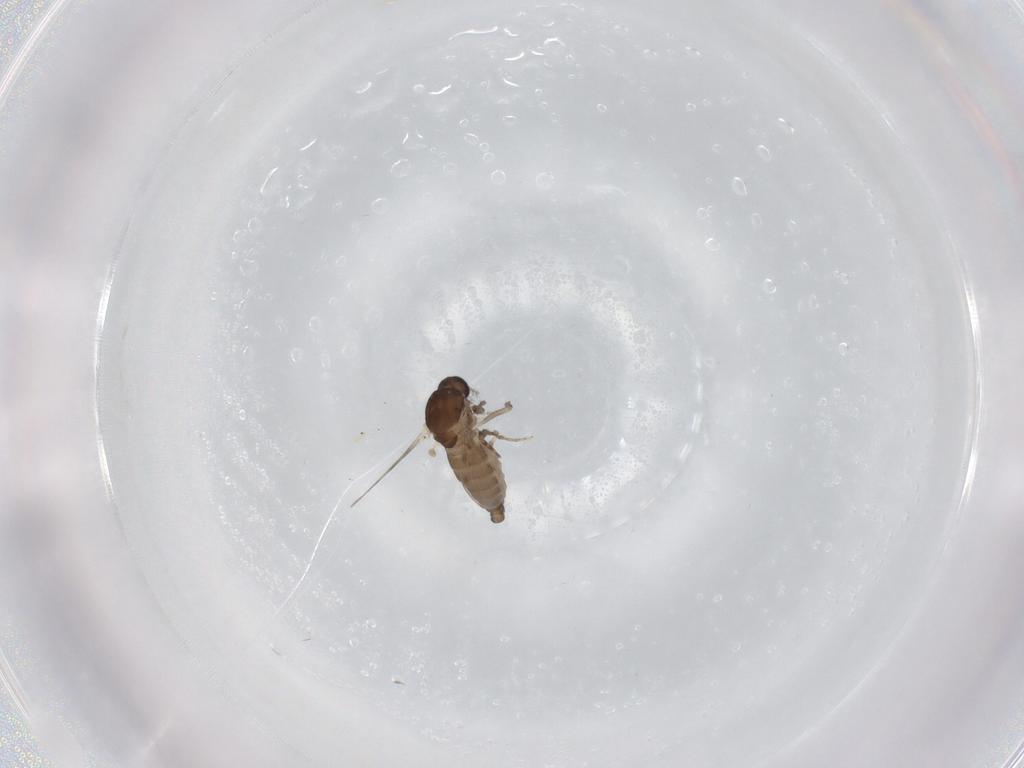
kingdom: Animalia
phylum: Arthropoda
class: Insecta
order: Diptera
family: Ceratopogonidae
